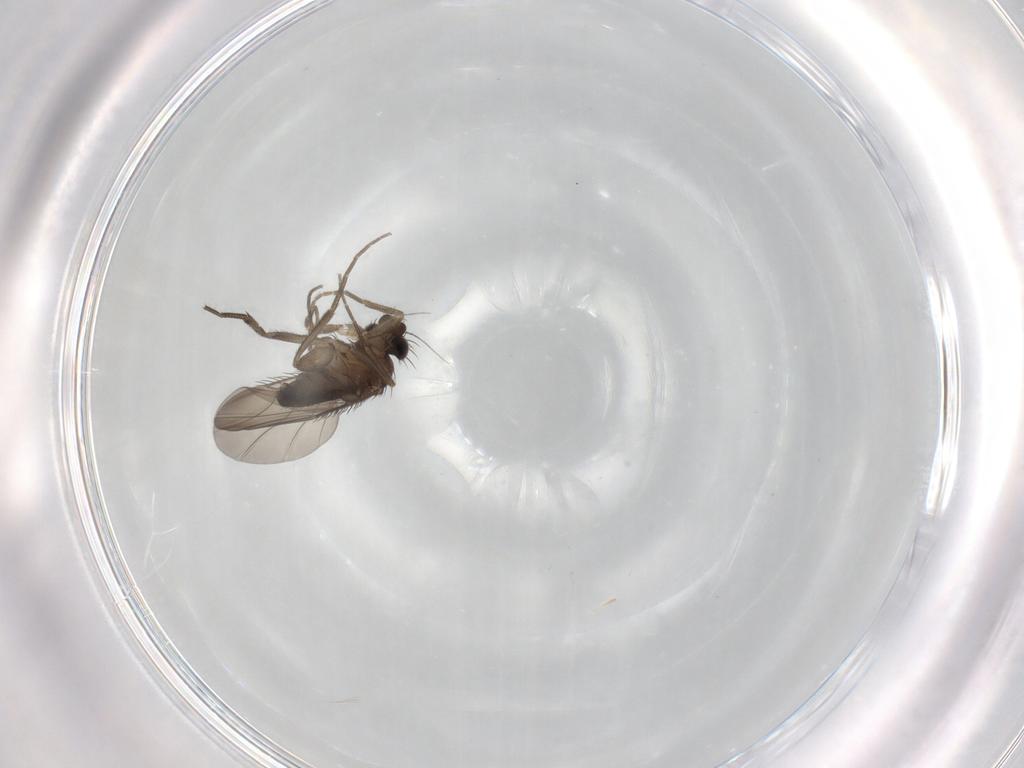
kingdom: Animalia
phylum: Arthropoda
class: Insecta
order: Diptera
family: Phoridae
